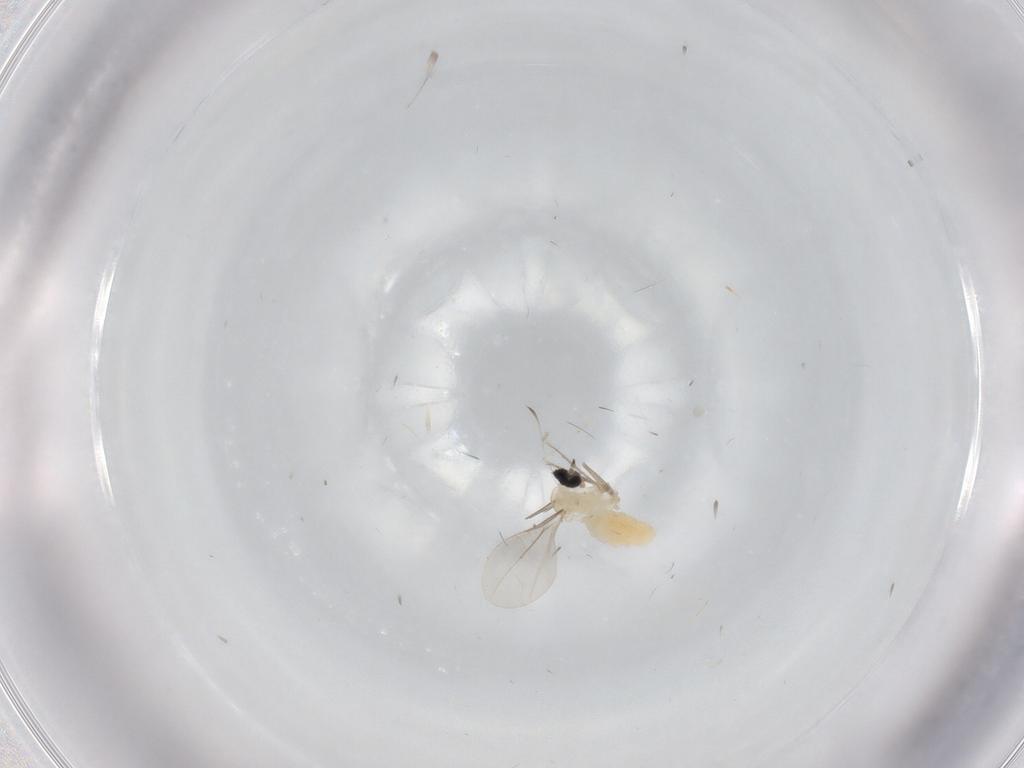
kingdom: Animalia
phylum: Arthropoda
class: Insecta
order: Diptera
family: Cecidomyiidae
